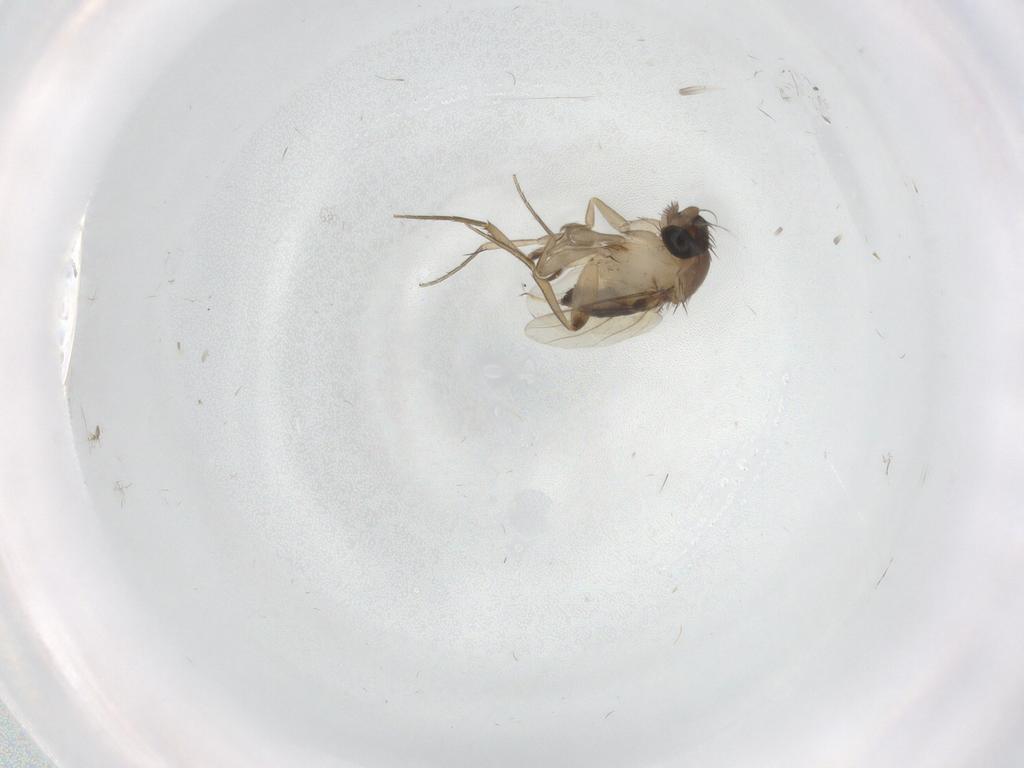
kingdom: Animalia
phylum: Arthropoda
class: Insecta
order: Diptera
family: Phoridae
